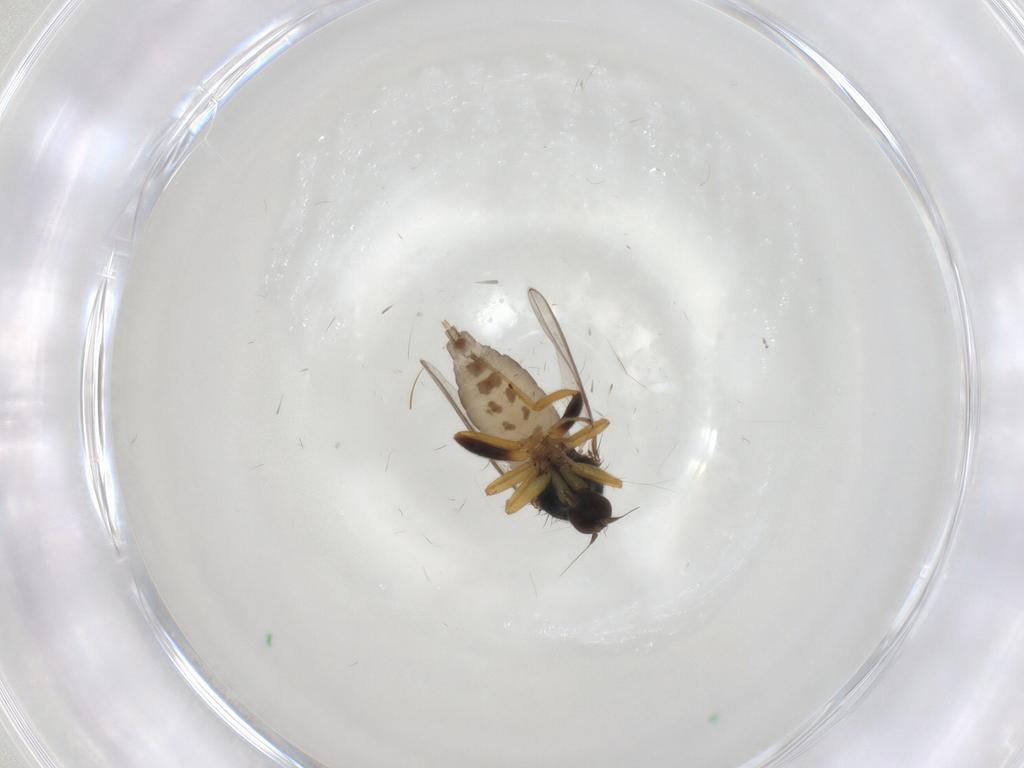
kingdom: Animalia
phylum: Arthropoda
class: Insecta
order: Diptera
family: Hybotidae
